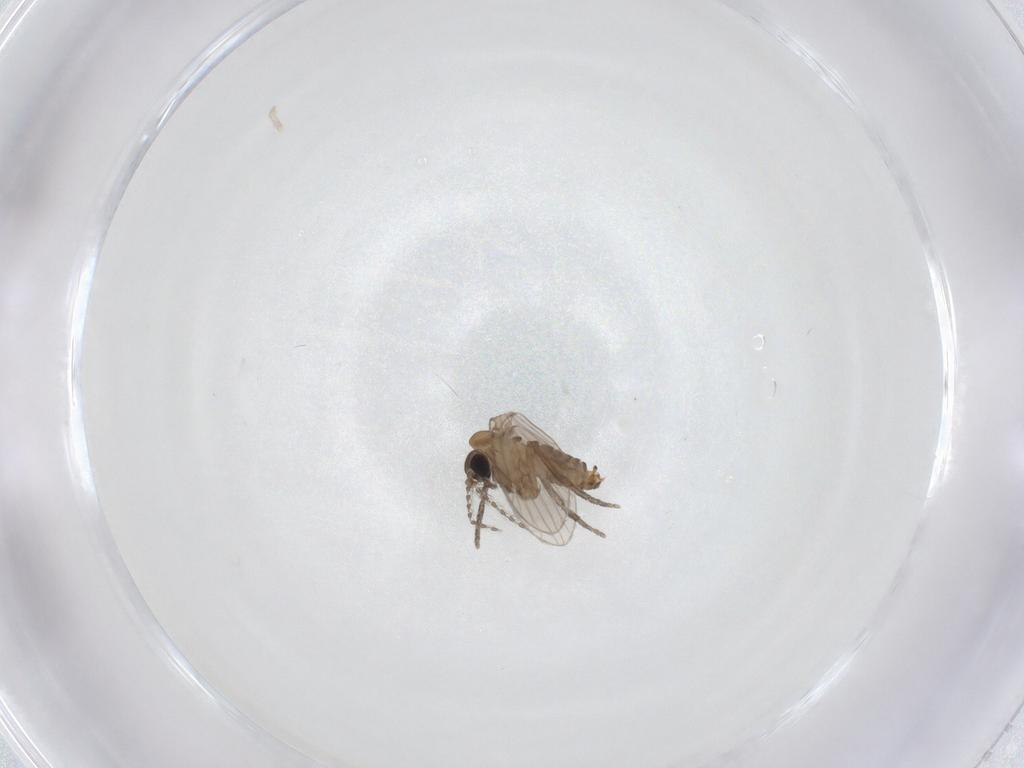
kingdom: Animalia
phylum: Arthropoda
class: Insecta
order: Diptera
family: Psychodidae
